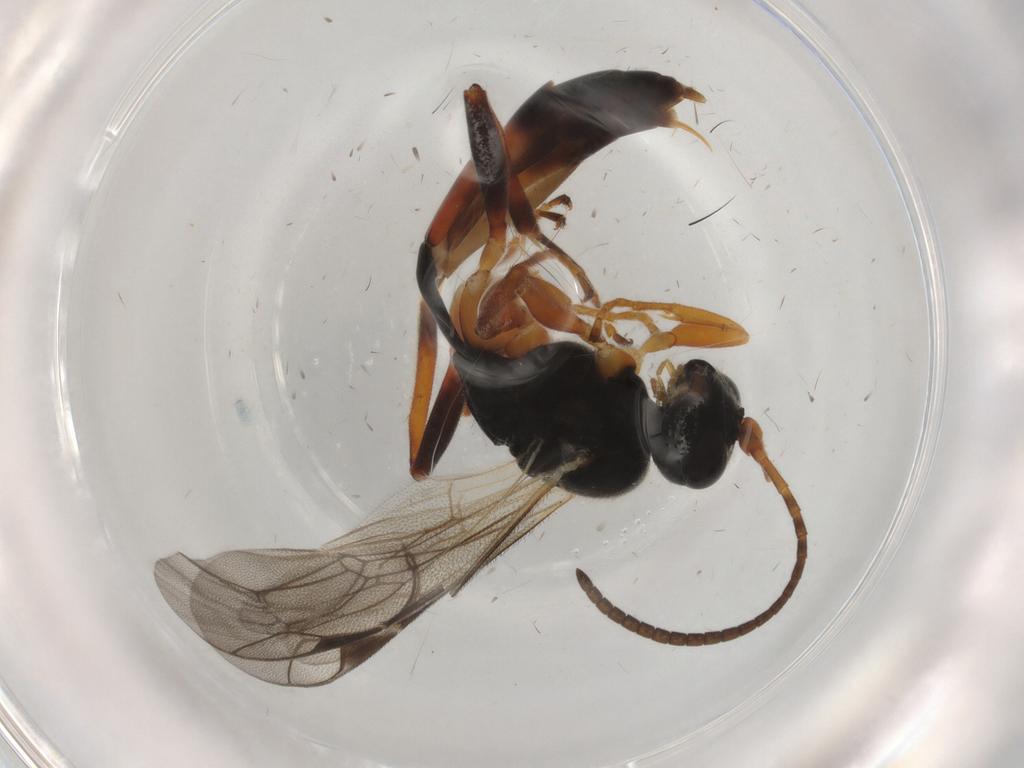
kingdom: Animalia
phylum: Arthropoda
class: Insecta
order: Hymenoptera
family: Ichneumonidae
